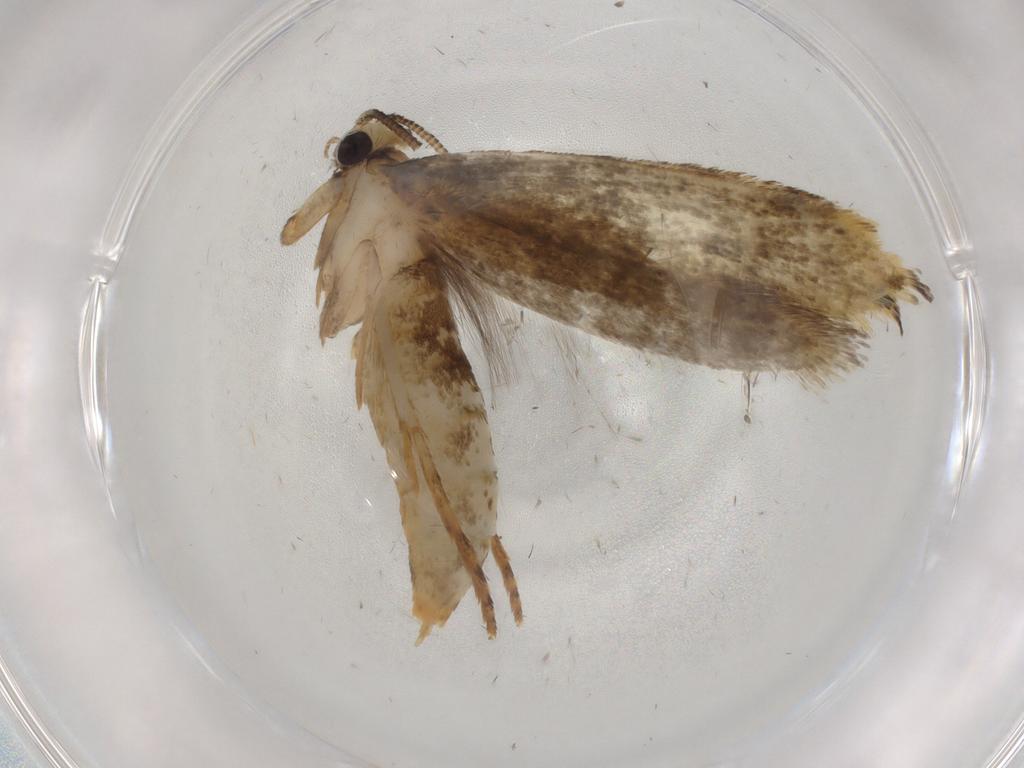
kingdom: Animalia
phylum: Arthropoda
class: Insecta
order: Lepidoptera
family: Tineidae
